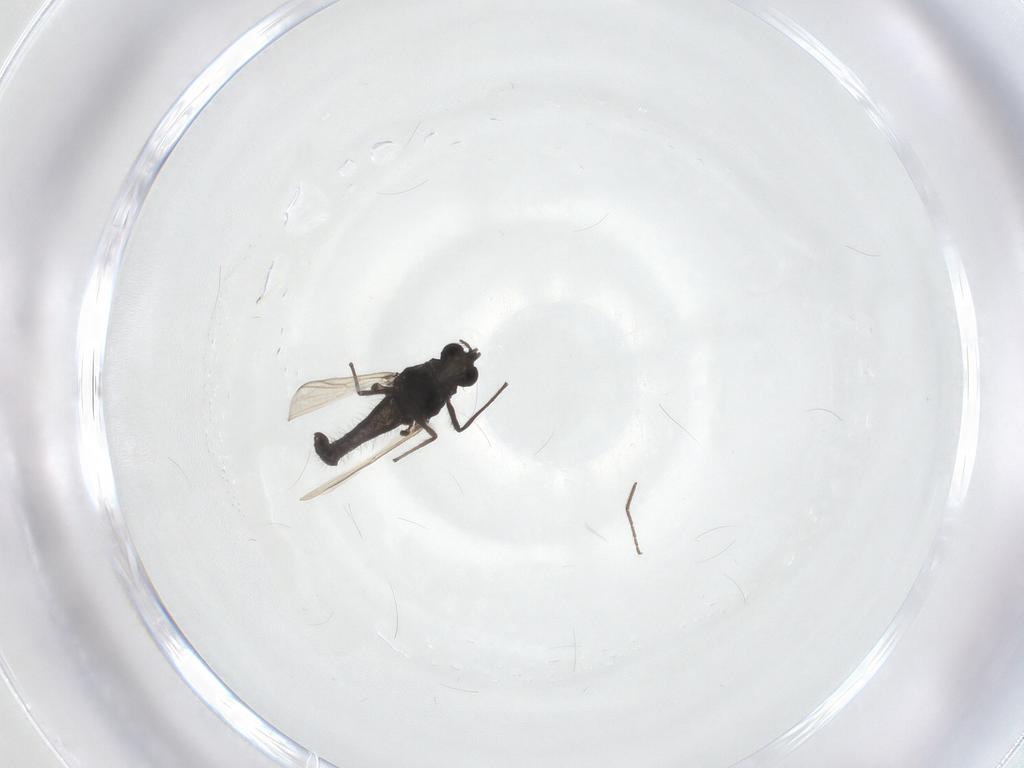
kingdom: Animalia
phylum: Arthropoda
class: Insecta
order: Diptera
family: Chironomidae
